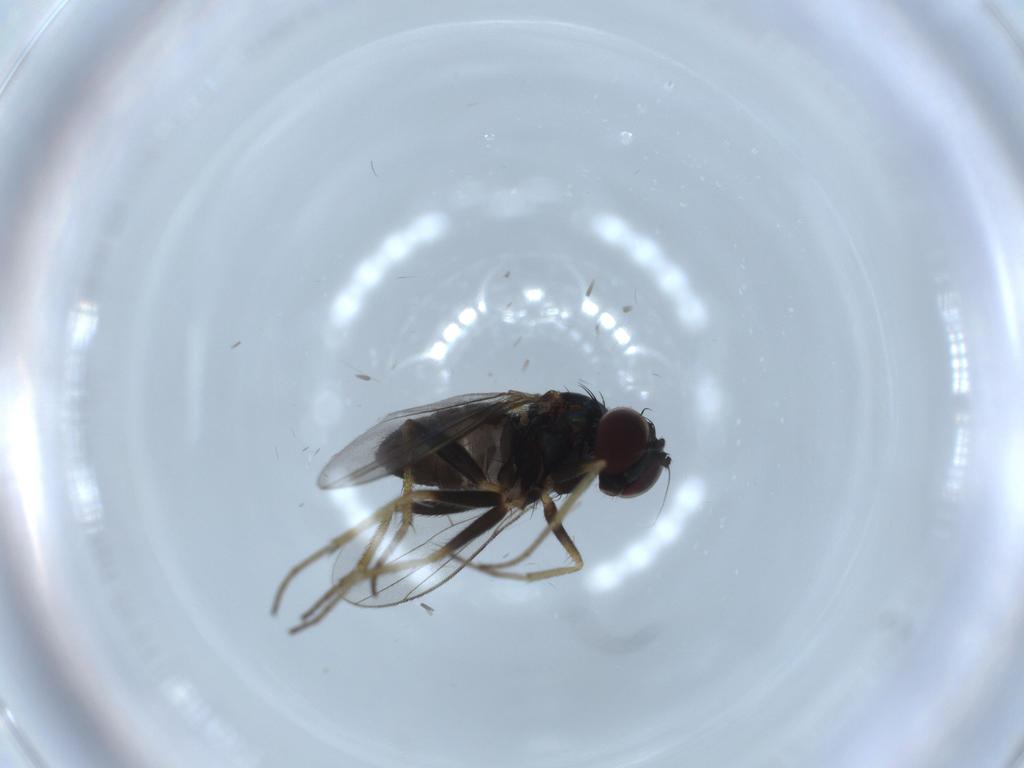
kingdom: Animalia
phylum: Arthropoda
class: Insecta
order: Diptera
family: Dolichopodidae
